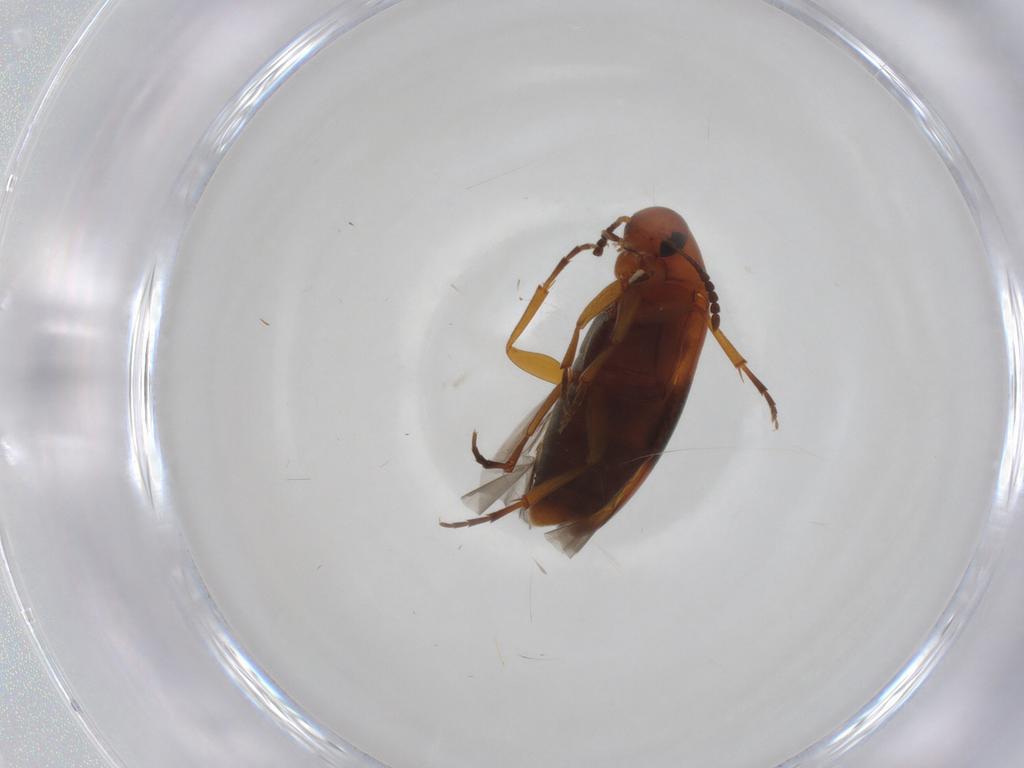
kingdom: Animalia
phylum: Arthropoda
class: Insecta
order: Coleoptera
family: Scraptiidae
